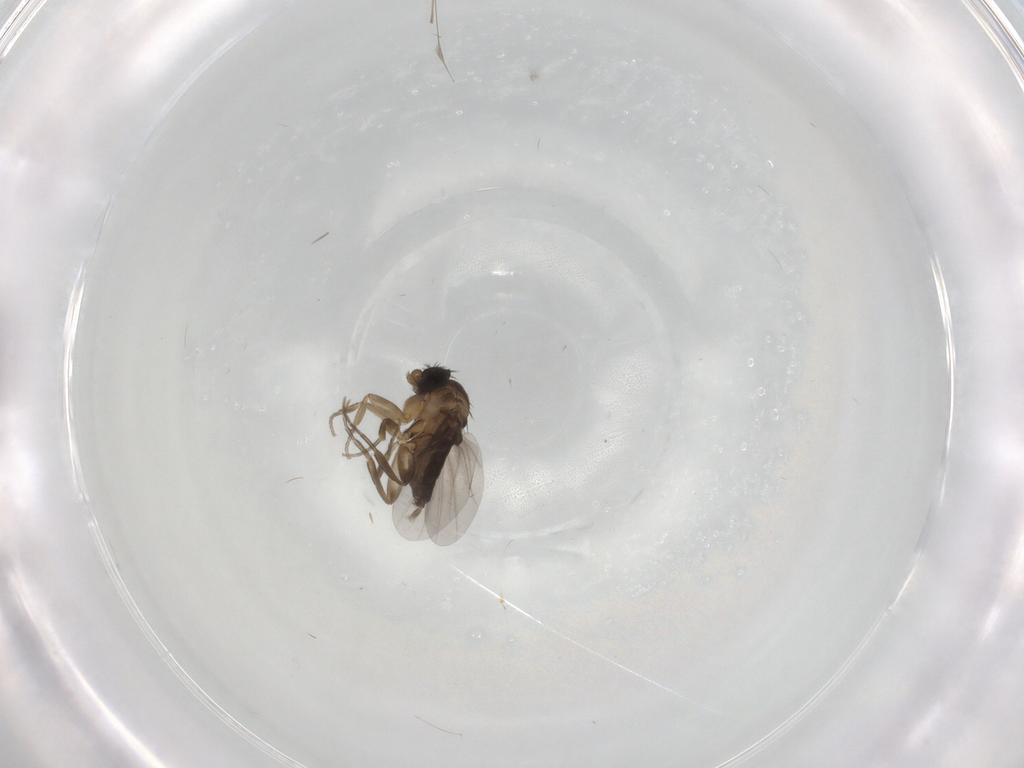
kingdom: Animalia
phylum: Arthropoda
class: Insecta
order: Diptera
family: Phoridae
